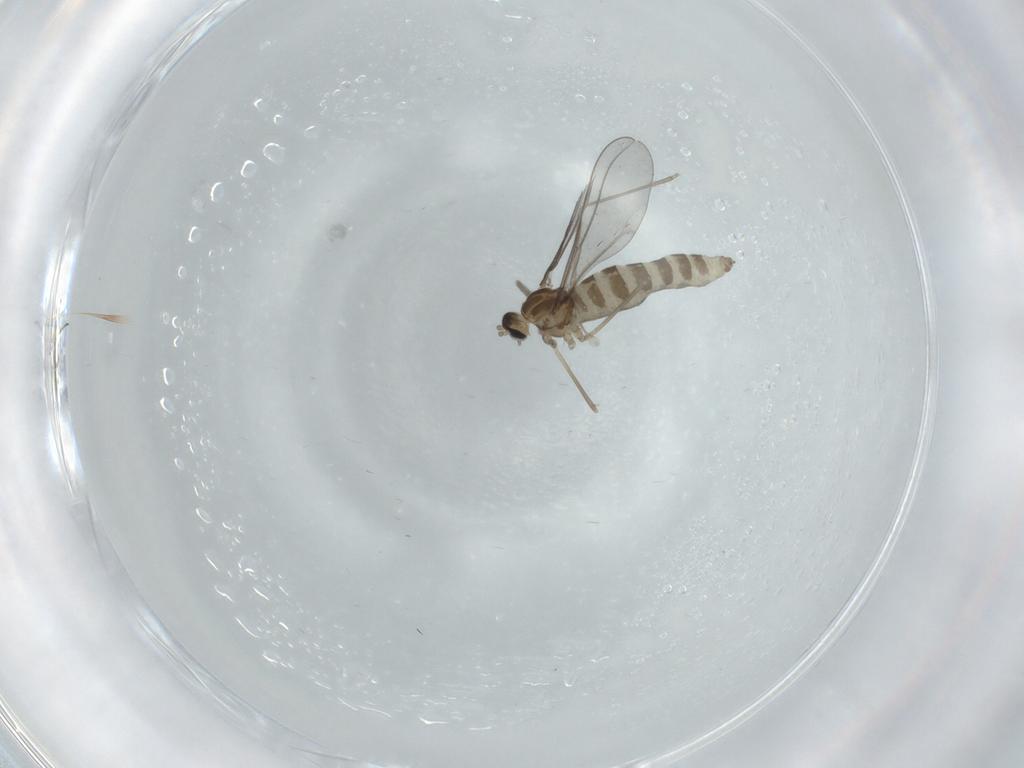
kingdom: Animalia
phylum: Arthropoda
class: Insecta
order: Diptera
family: Cecidomyiidae
